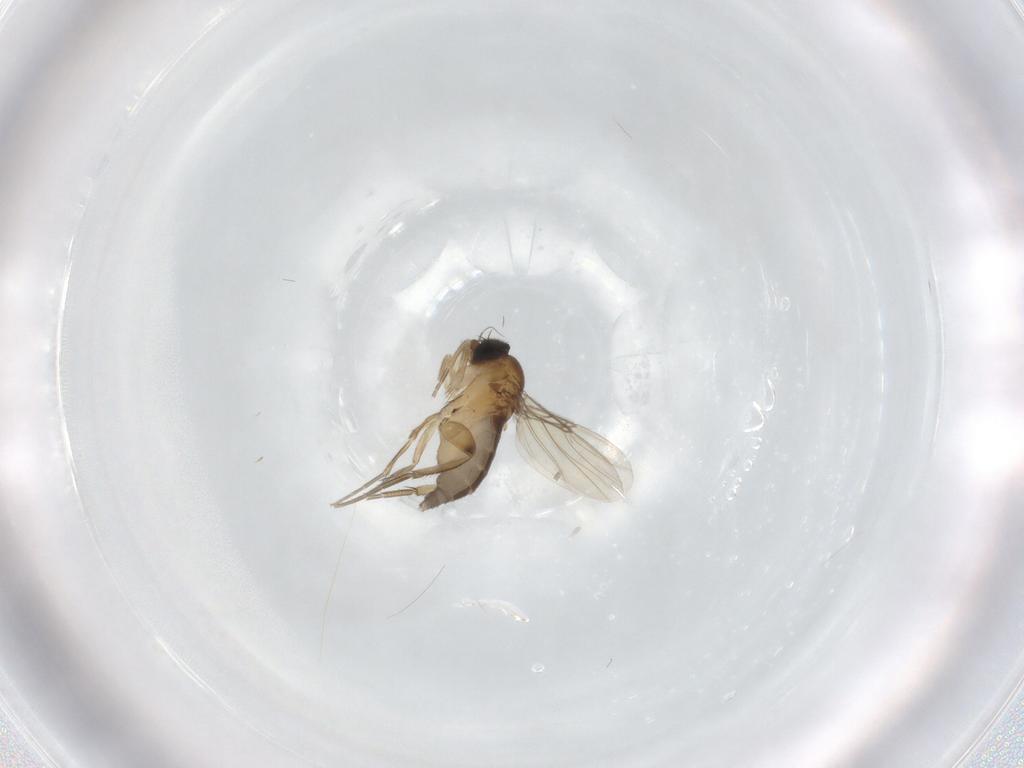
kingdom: Animalia
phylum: Arthropoda
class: Insecta
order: Diptera
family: Phoridae
